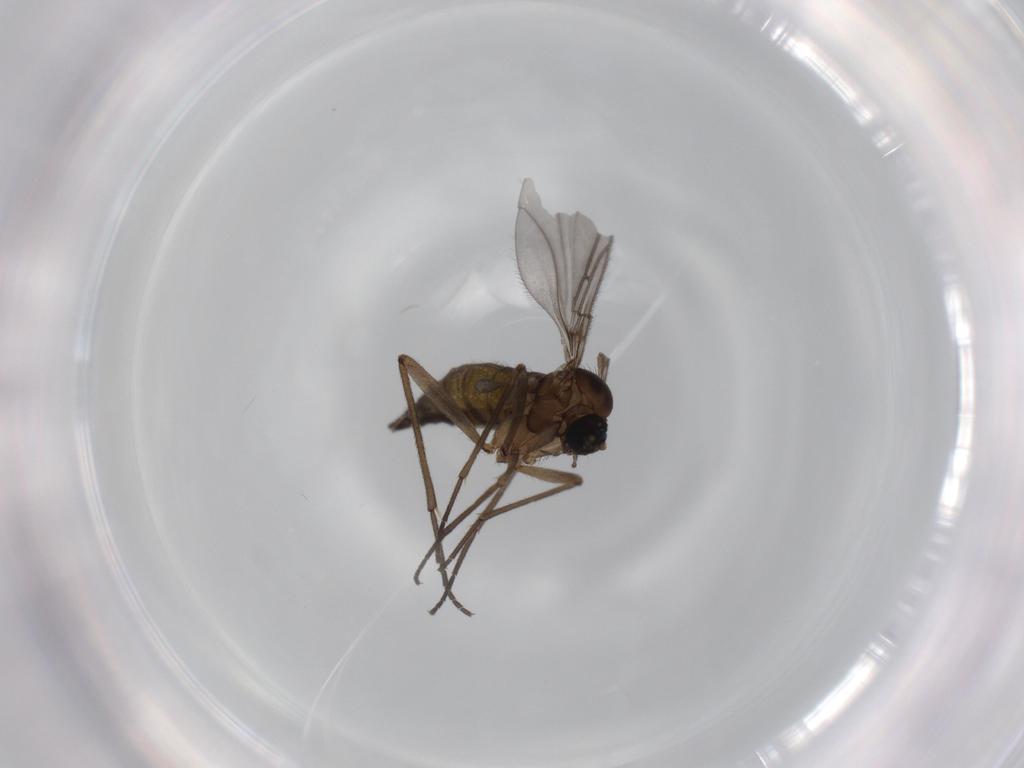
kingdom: Animalia
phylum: Arthropoda
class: Insecta
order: Diptera
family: Sciaridae
